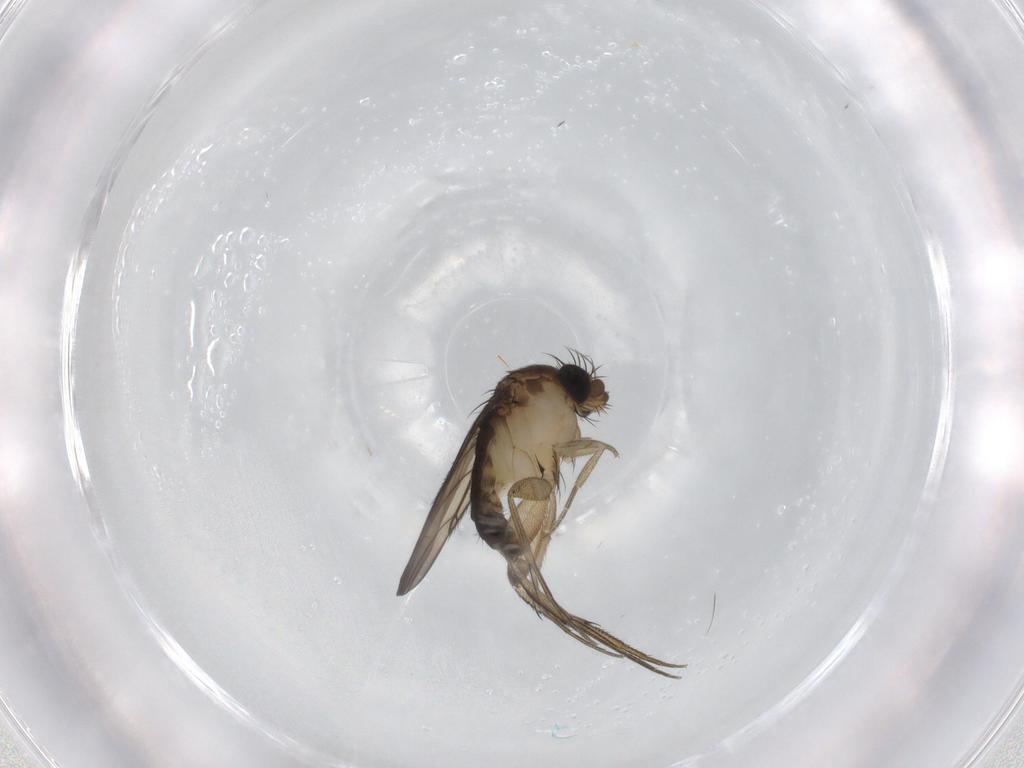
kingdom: Animalia
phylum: Arthropoda
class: Insecta
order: Diptera
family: Phoridae
